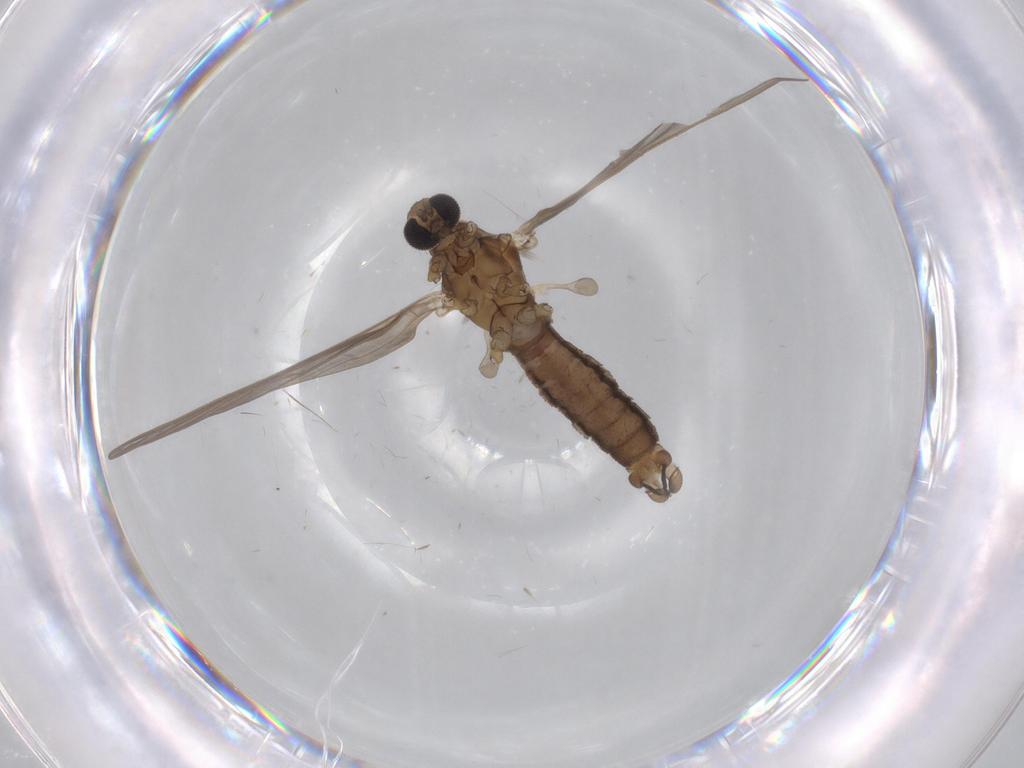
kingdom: Animalia
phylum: Arthropoda
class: Insecta
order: Diptera
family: Limoniidae
